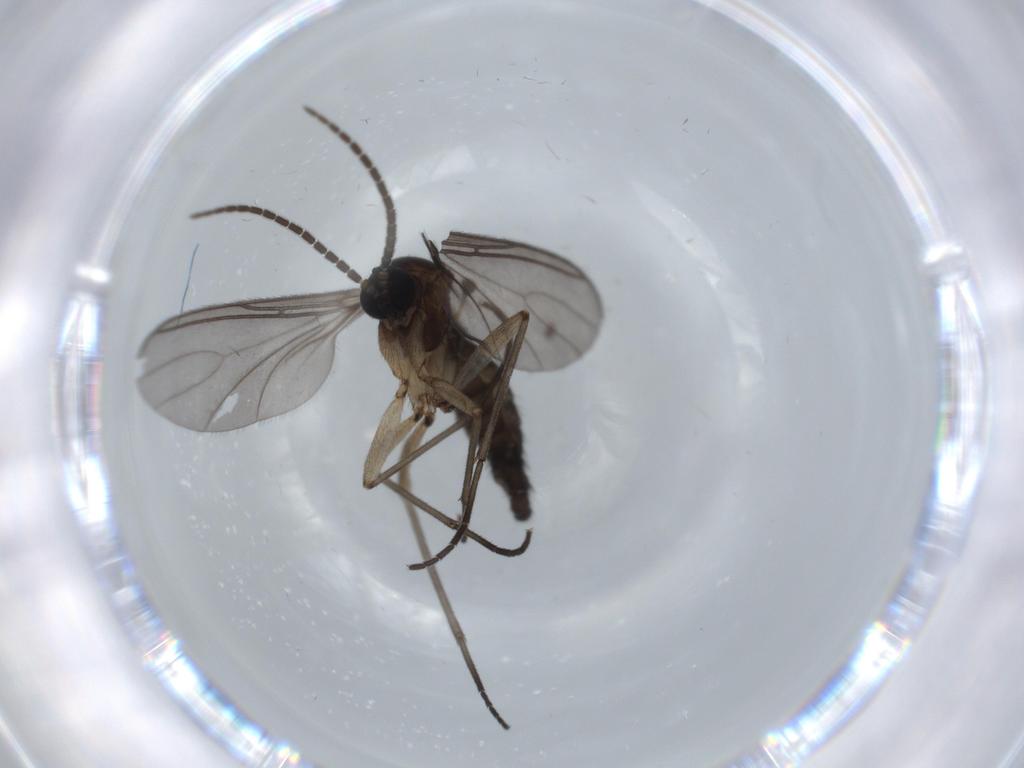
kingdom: Animalia
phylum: Arthropoda
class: Insecta
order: Diptera
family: Sciaridae
